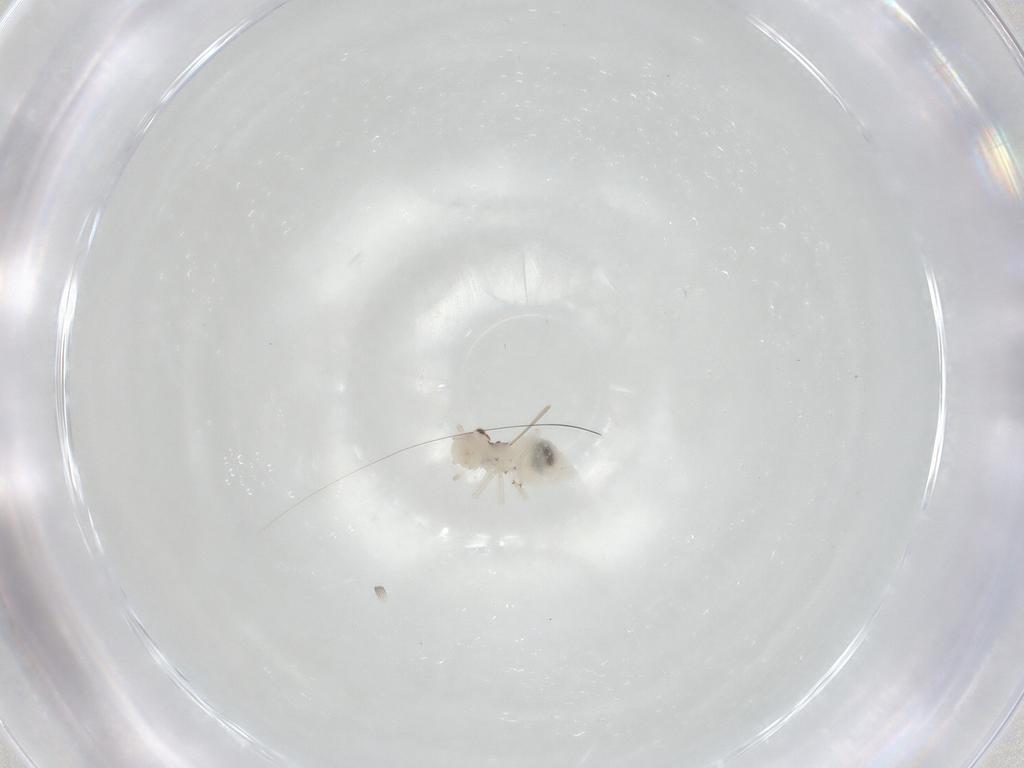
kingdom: Animalia
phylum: Arthropoda
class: Insecta
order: Psocodea
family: Amphipsocidae
